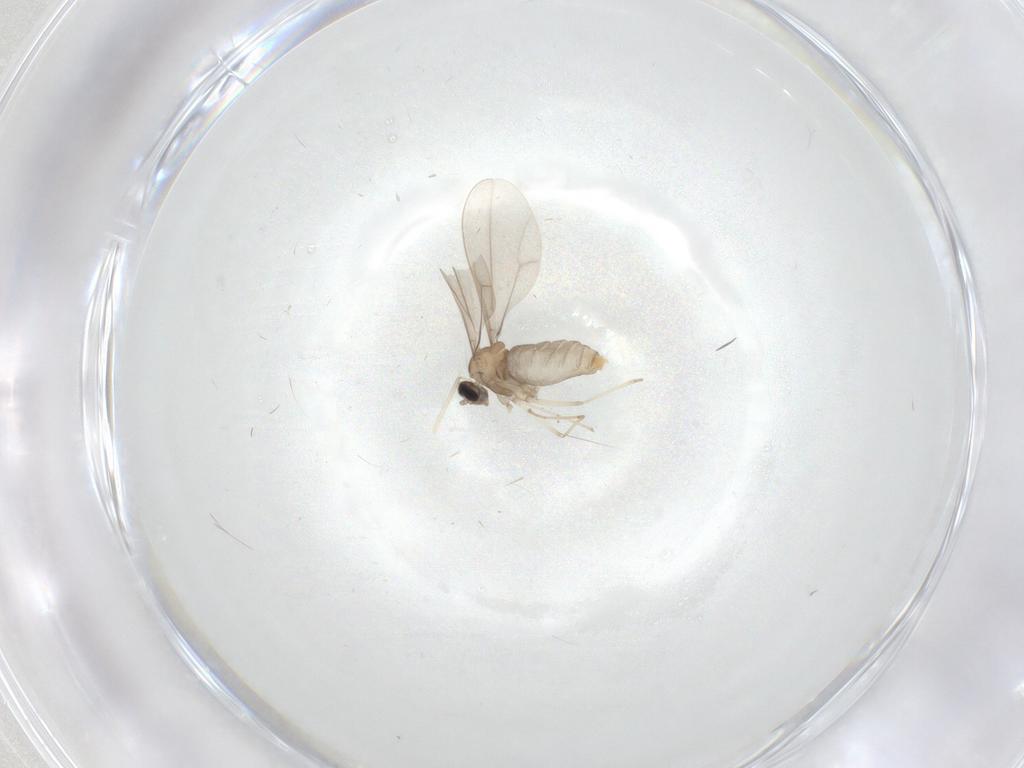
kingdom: Animalia
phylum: Arthropoda
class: Insecta
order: Diptera
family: Cecidomyiidae
